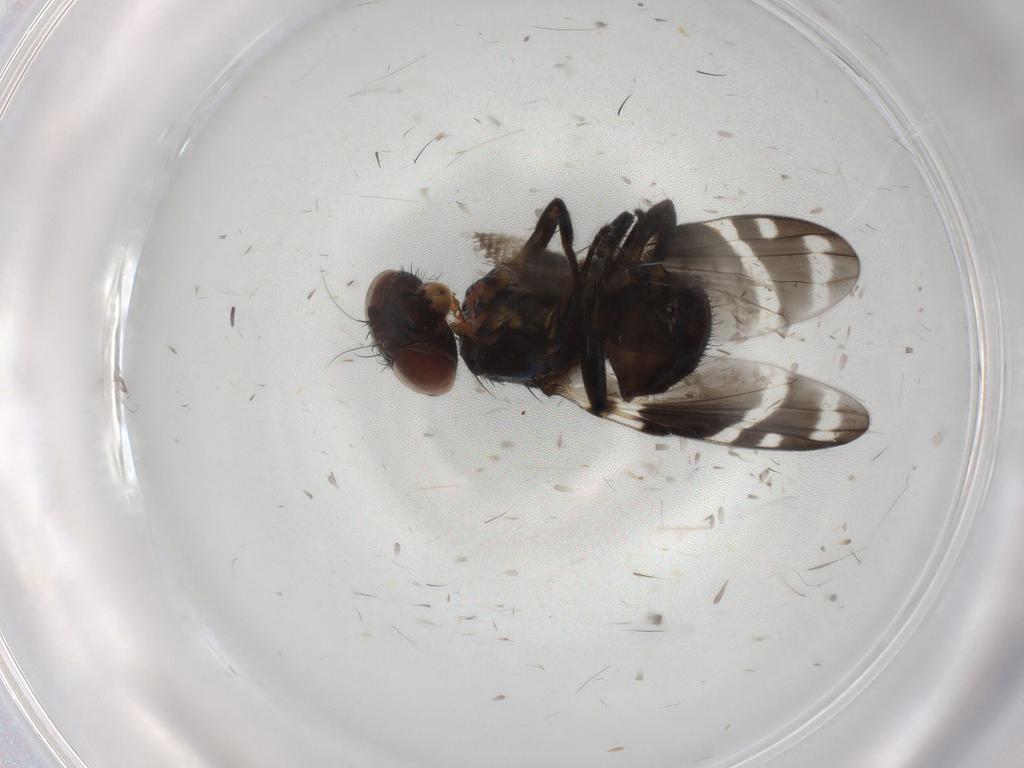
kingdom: Animalia
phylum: Arthropoda
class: Insecta
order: Diptera
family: Ulidiidae
